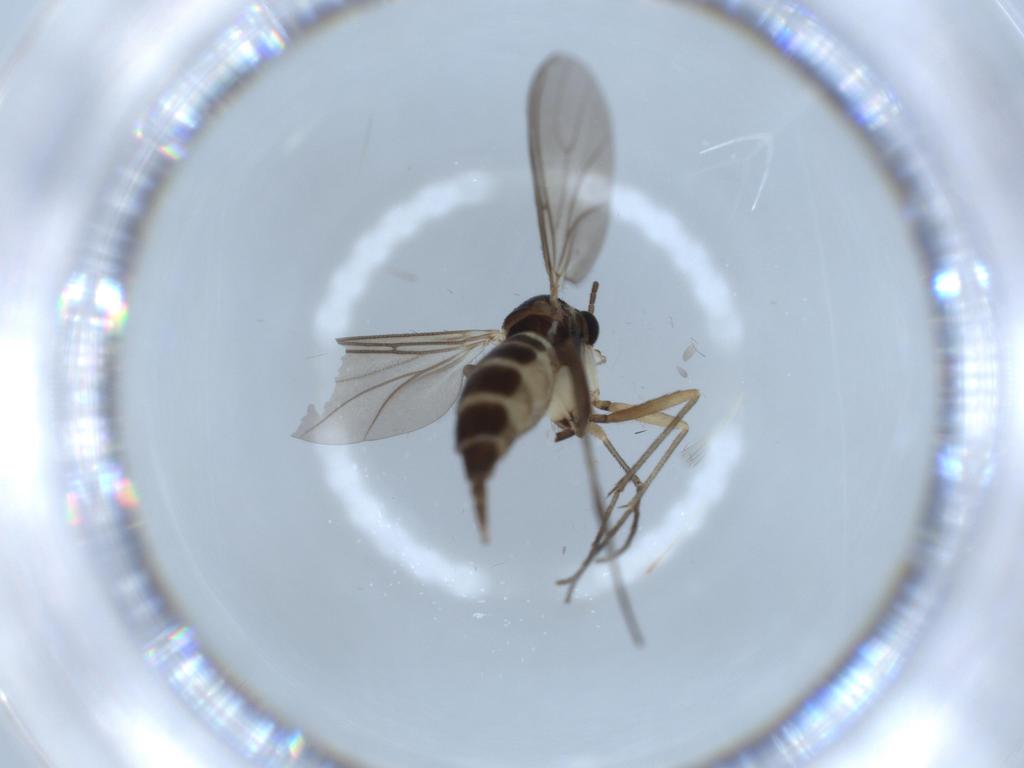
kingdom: Animalia
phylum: Arthropoda
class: Insecta
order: Diptera
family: Sciaridae
